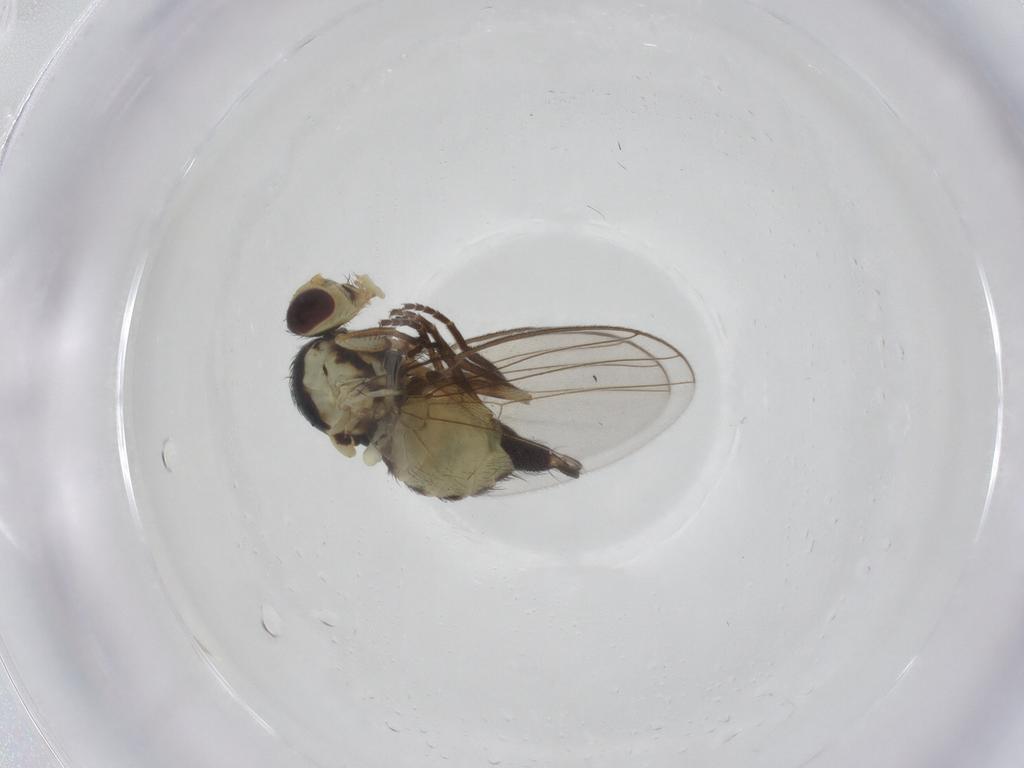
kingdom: Animalia
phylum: Arthropoda
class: Insecta
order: Diptera
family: Agromyzidae
